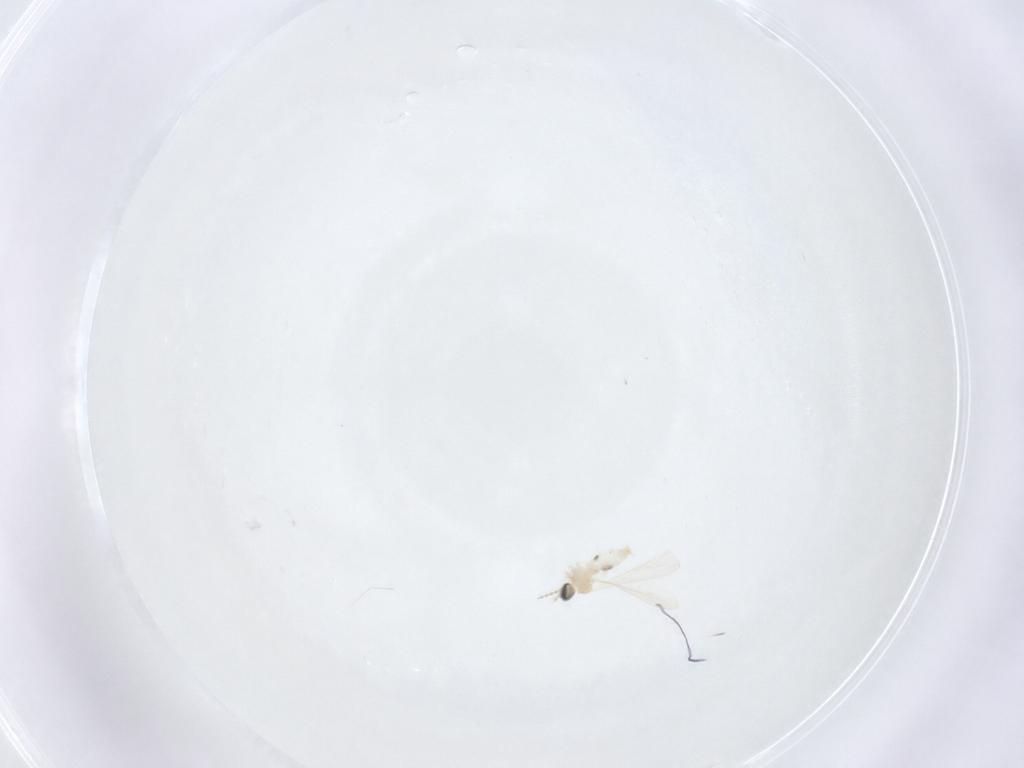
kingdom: Animalia
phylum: Arthropoda
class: Insecta
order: Diptera
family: Cecidomyiidae
